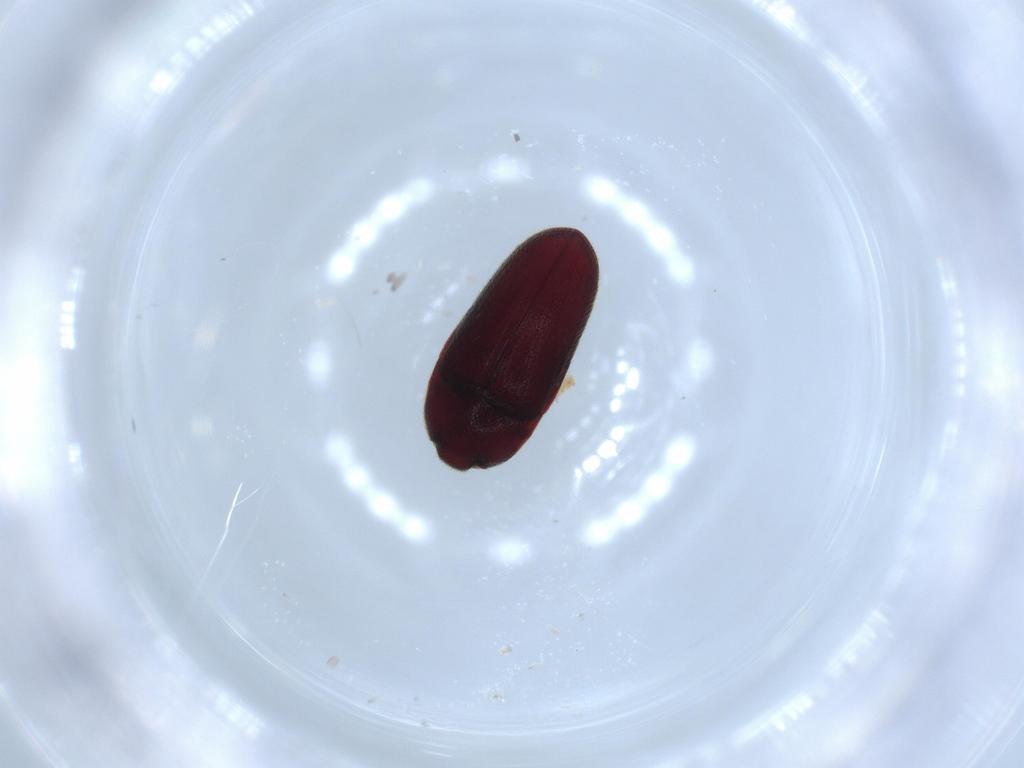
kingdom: Animalia
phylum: Arthropoda
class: Insecta
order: Coleoptera
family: Throscidae
